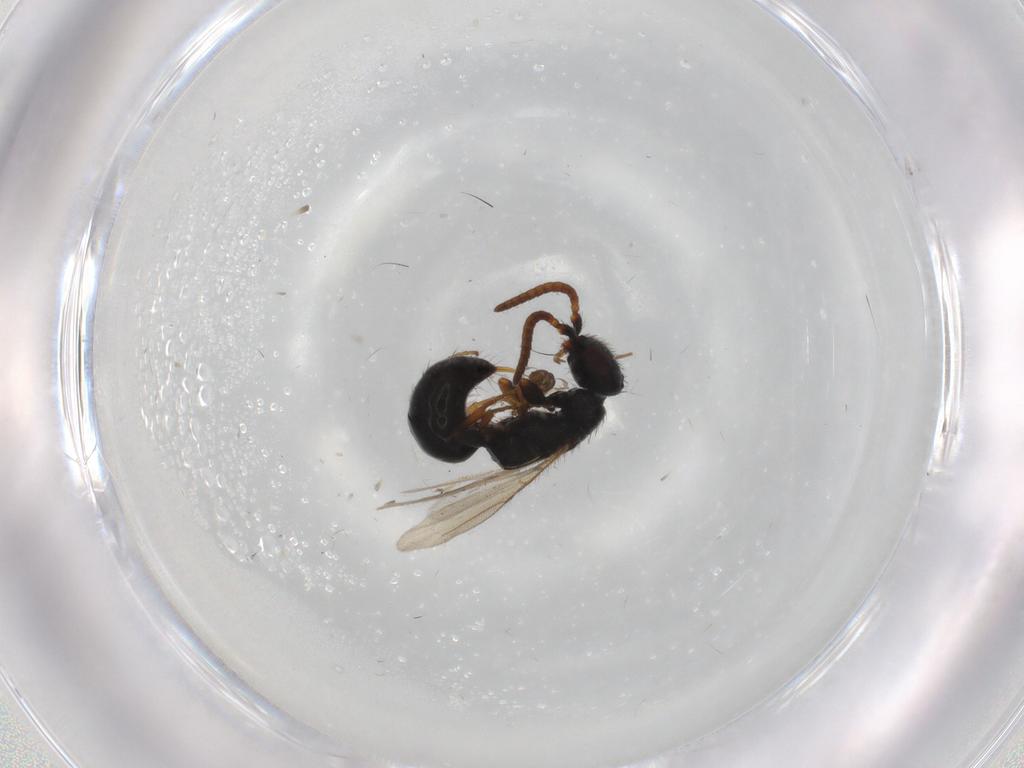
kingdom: Animalia
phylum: Arthropoda
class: Insecta
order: Hymenoptera
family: Bethylidae
